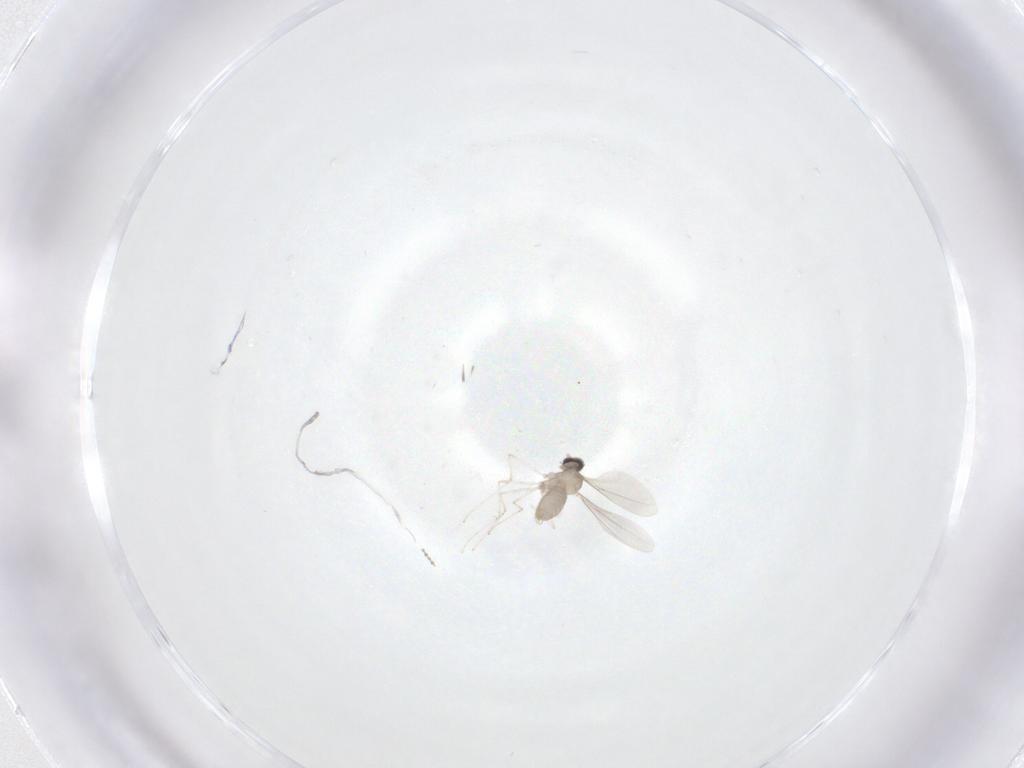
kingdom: Animalia
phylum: Arthropoda
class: Insecta
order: Diptera
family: Cecidomyiidae
